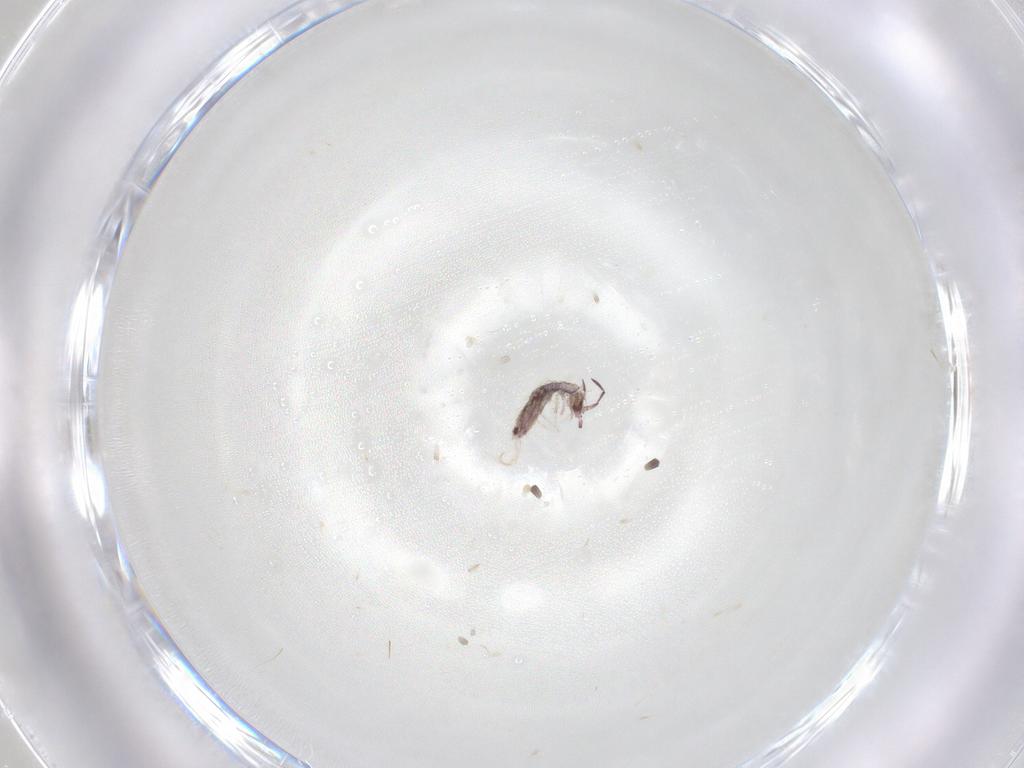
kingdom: Animalia
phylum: Arthropoda
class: Collembola
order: Poduromorpha
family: Hypogastruridae
